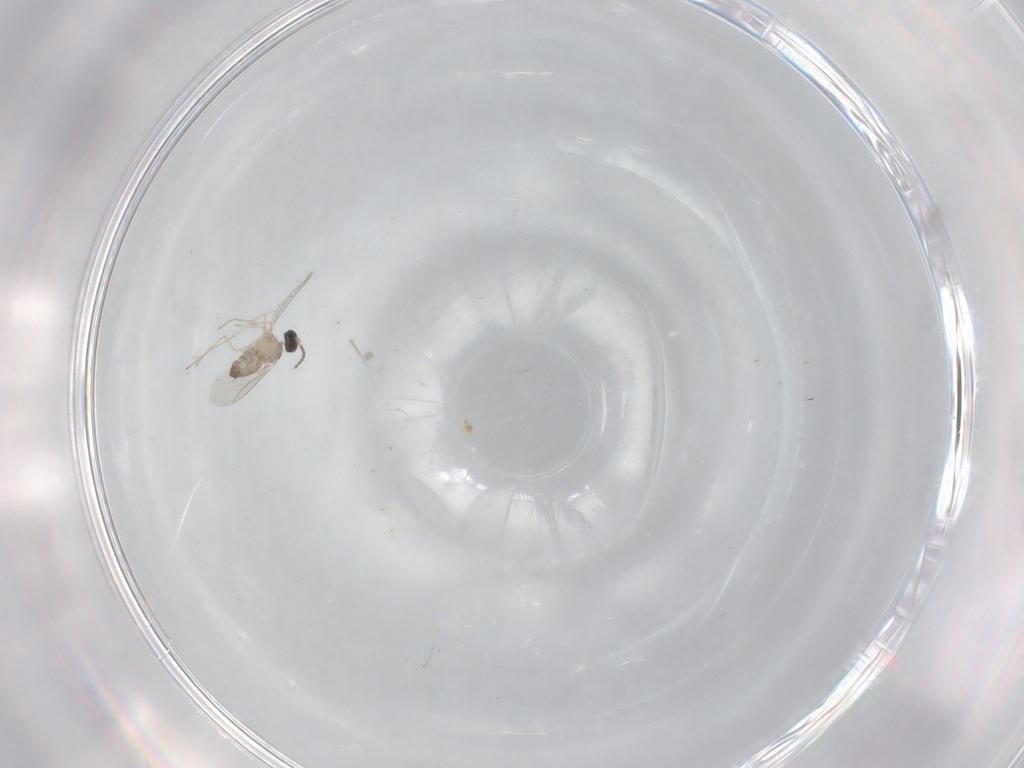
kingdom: Animalia
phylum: Arthropoda
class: Insecta
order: Diptera
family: Cecidomyiidae
